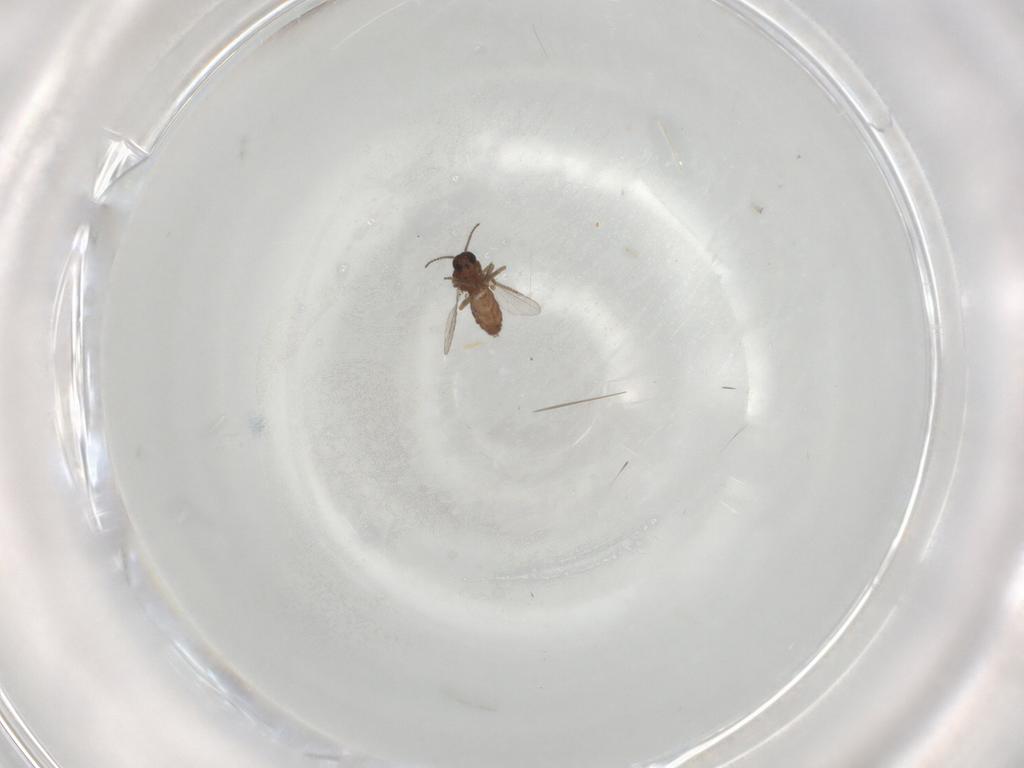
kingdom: Animalia
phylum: Arthropoda
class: Insecta
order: Diptera
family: Ceratopogonidae
